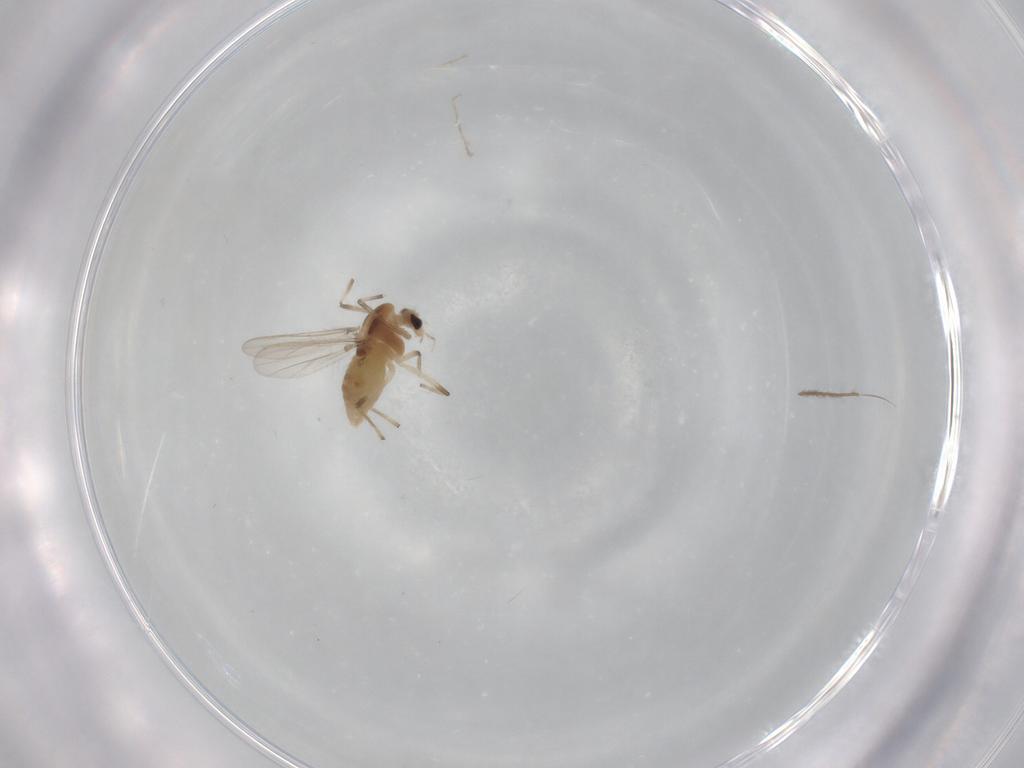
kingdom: Animalia
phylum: Arthropoda
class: Insecta
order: Diptera
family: Chironomidae
